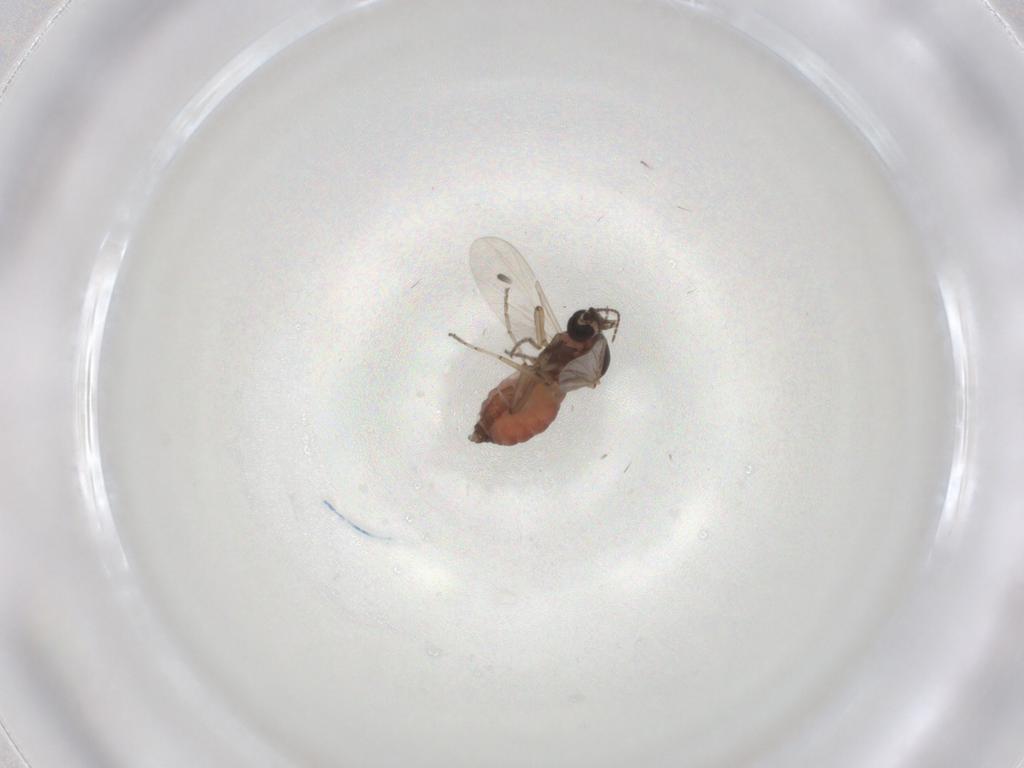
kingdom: Animalia
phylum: Arthropoda
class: Insecta
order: Diptera
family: Ceratopogonidae
